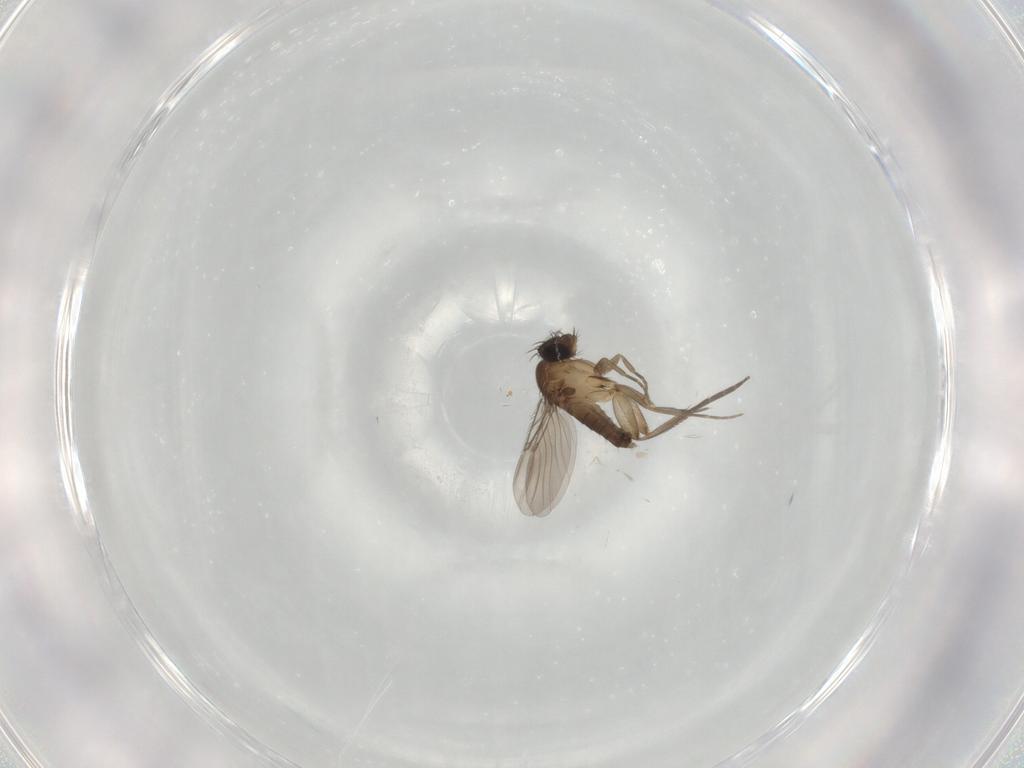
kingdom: Animalia
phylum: Arthropoda
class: Insecta
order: Diptera
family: Phoridae
